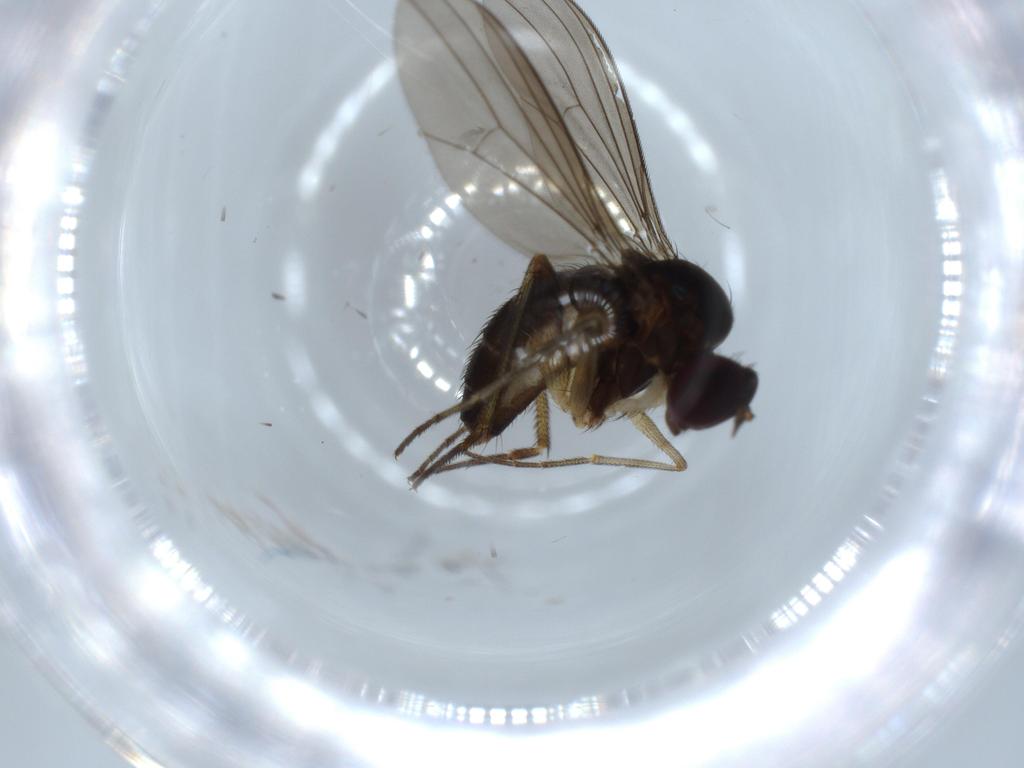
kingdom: Animalia
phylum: Arthropoda
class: Insecta
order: Diptera
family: Dolichopodidae
